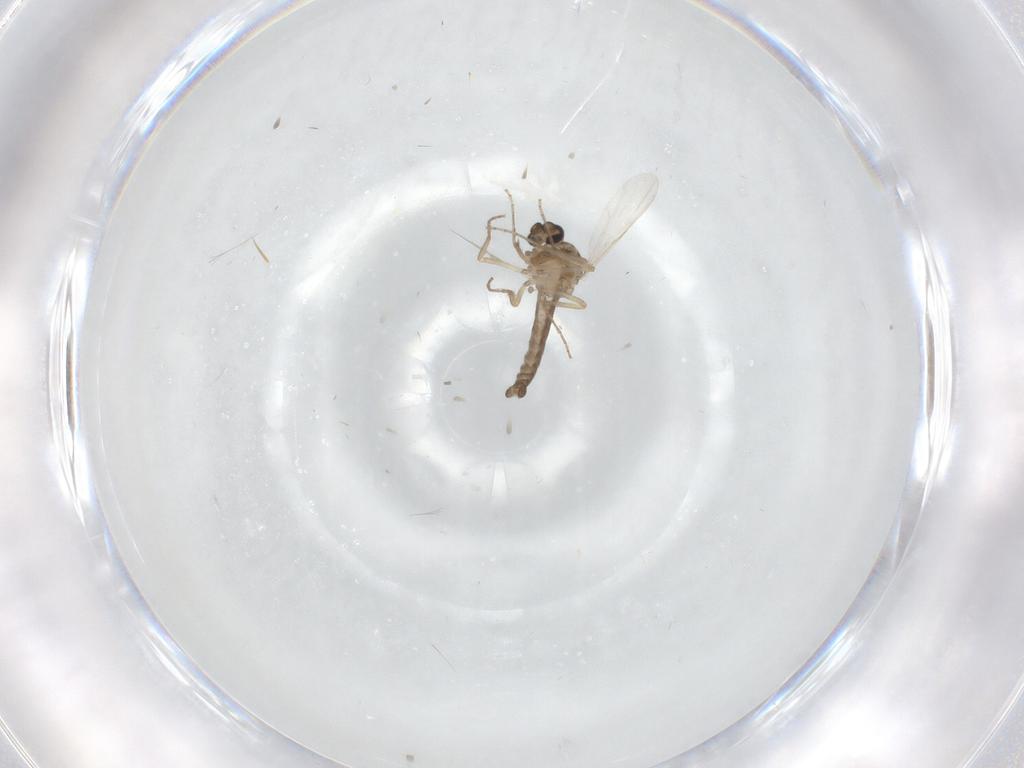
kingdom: Animalia
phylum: Arthropoda
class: Insecta
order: Diptera
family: Ceratopogonidae
